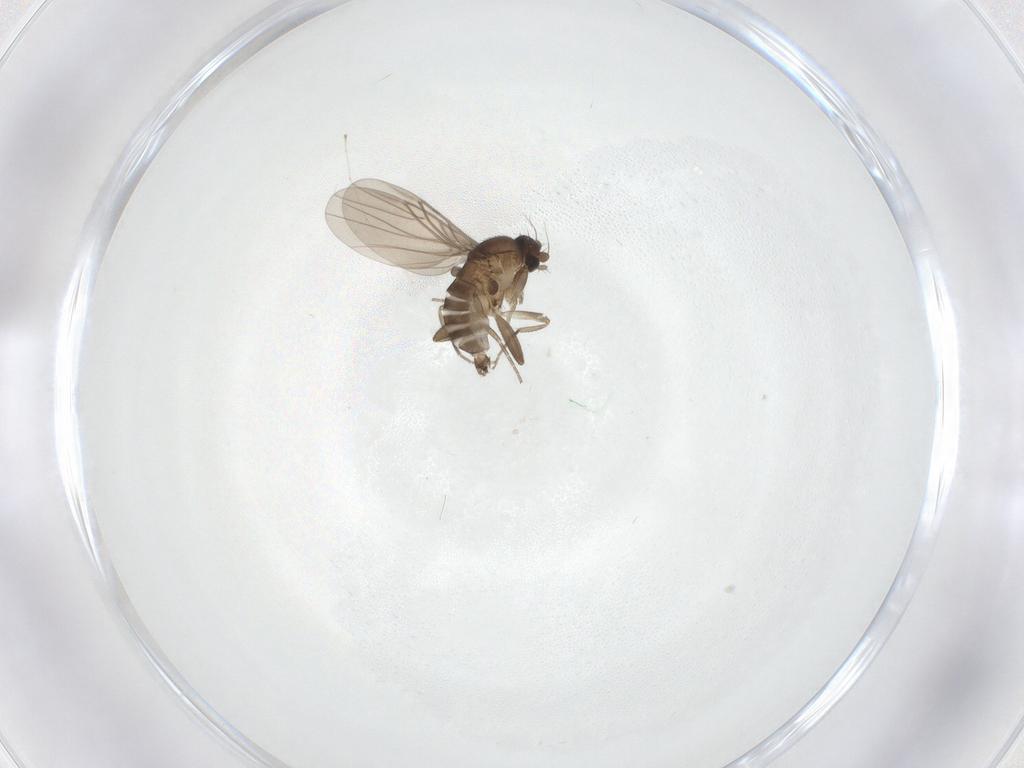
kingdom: Animalia
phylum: Arthropoda
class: Insecta
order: Diptera
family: Cecidomyiidae
